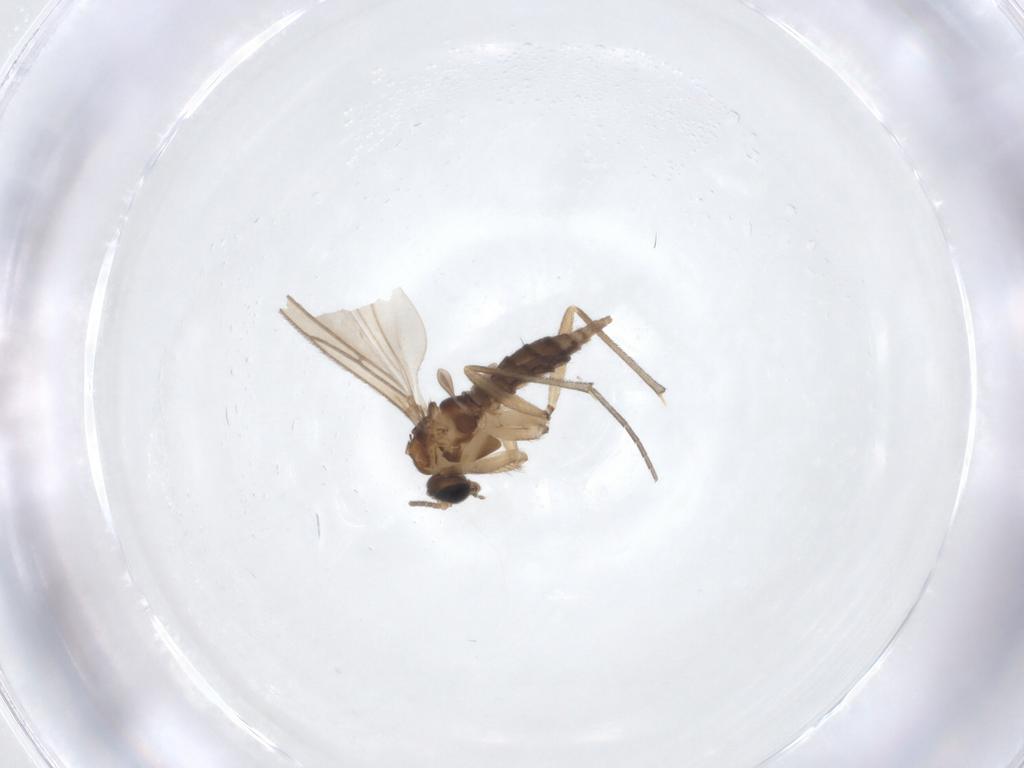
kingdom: Animalia
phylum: Arthropoda
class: Insecta
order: Diptera
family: Sciaridae
